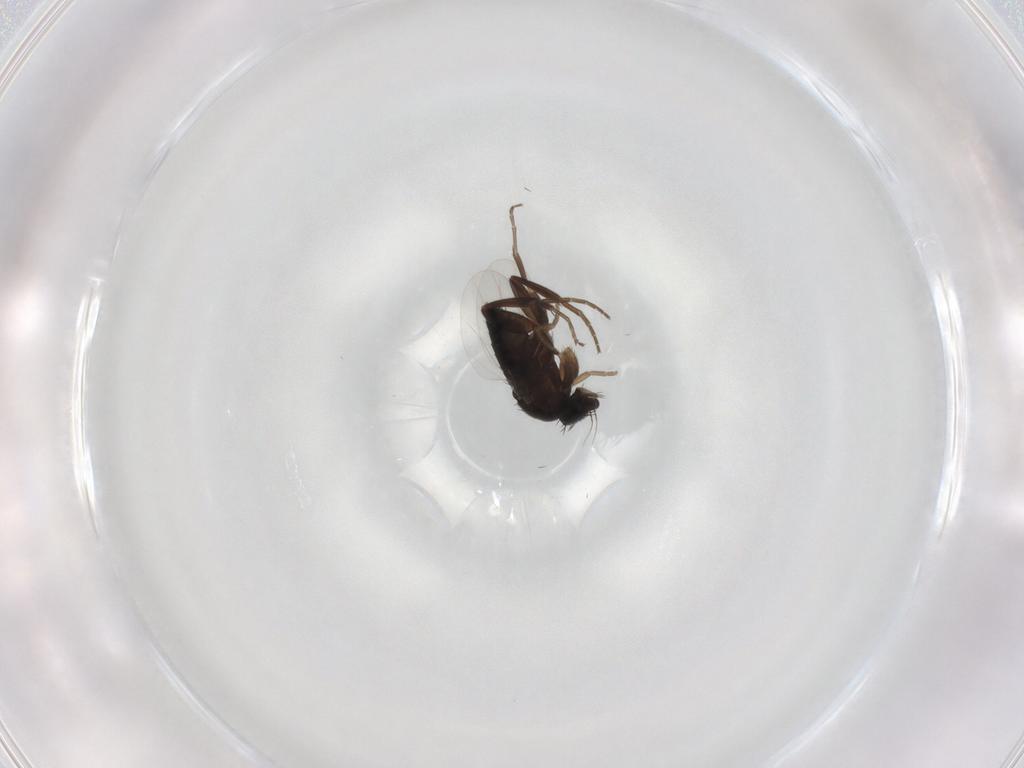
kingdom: Animalia
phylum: Arthropoda
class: Insecta
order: Diptera
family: Phoridae
